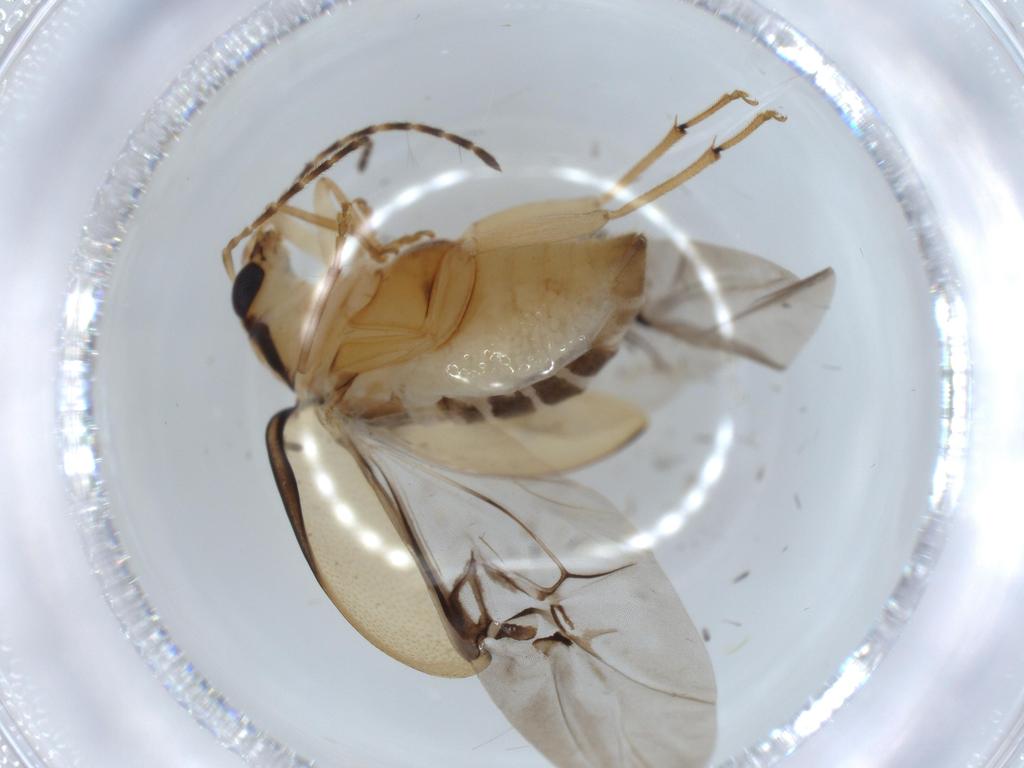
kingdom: Animalia
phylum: Arthropoda
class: Insecta
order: Coleoptera
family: Chrysomelidae
